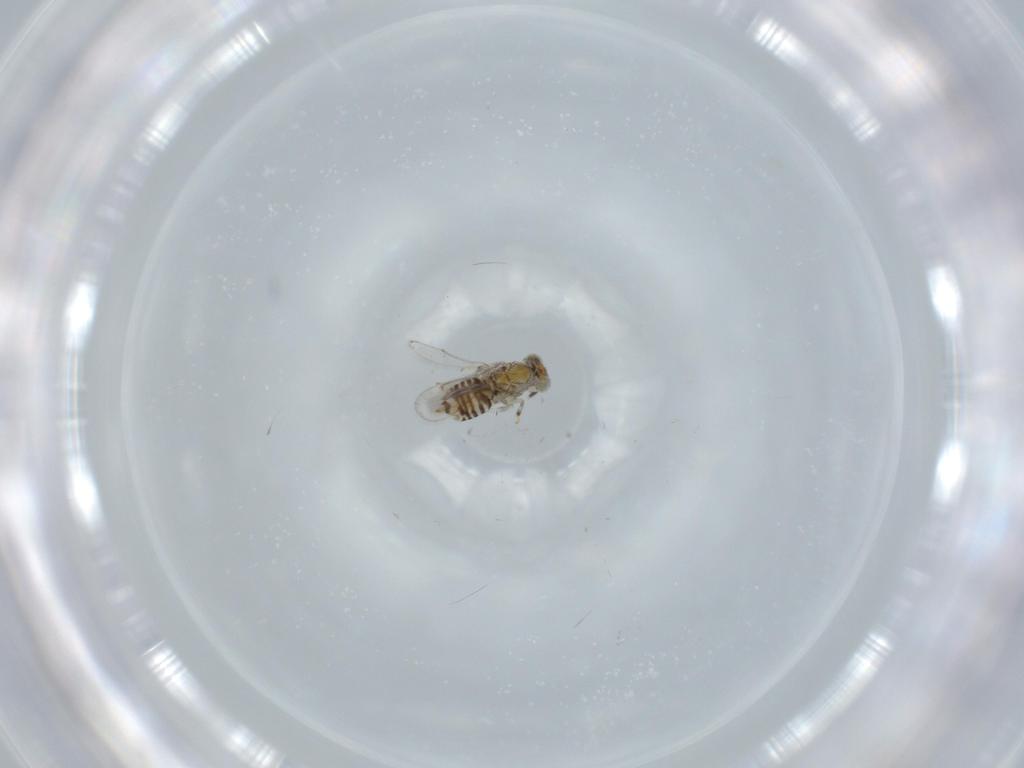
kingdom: Animalia
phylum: Arthropoda
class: Insecta
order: Hymenoptera
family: Aphelinidae
